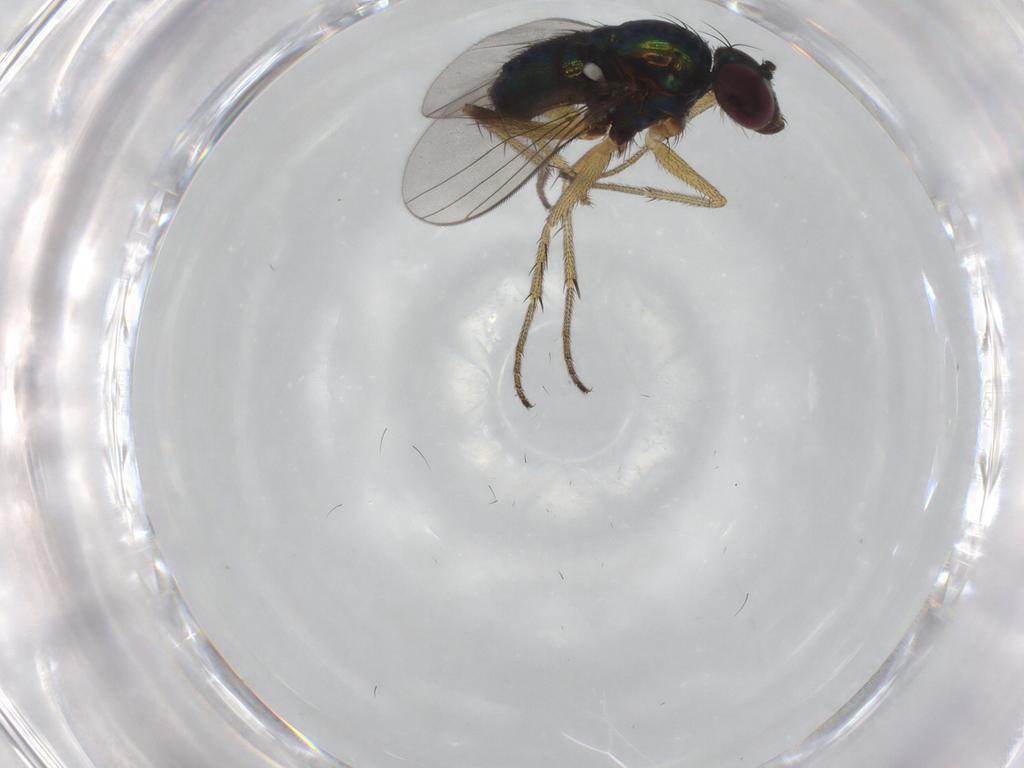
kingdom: Animalia
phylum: Arthropoda
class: Insecta
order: Diptera
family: Dolichopodidae
